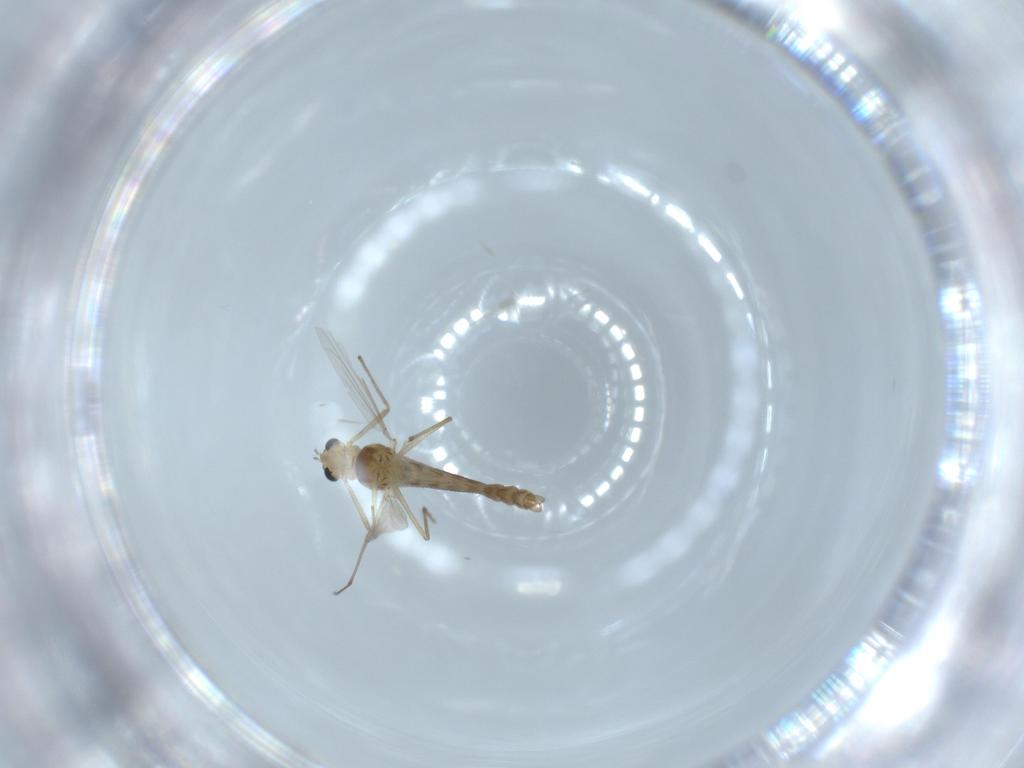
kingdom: Animalia
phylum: Arthropoda
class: Insecta
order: Diptera
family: Chironomidae
